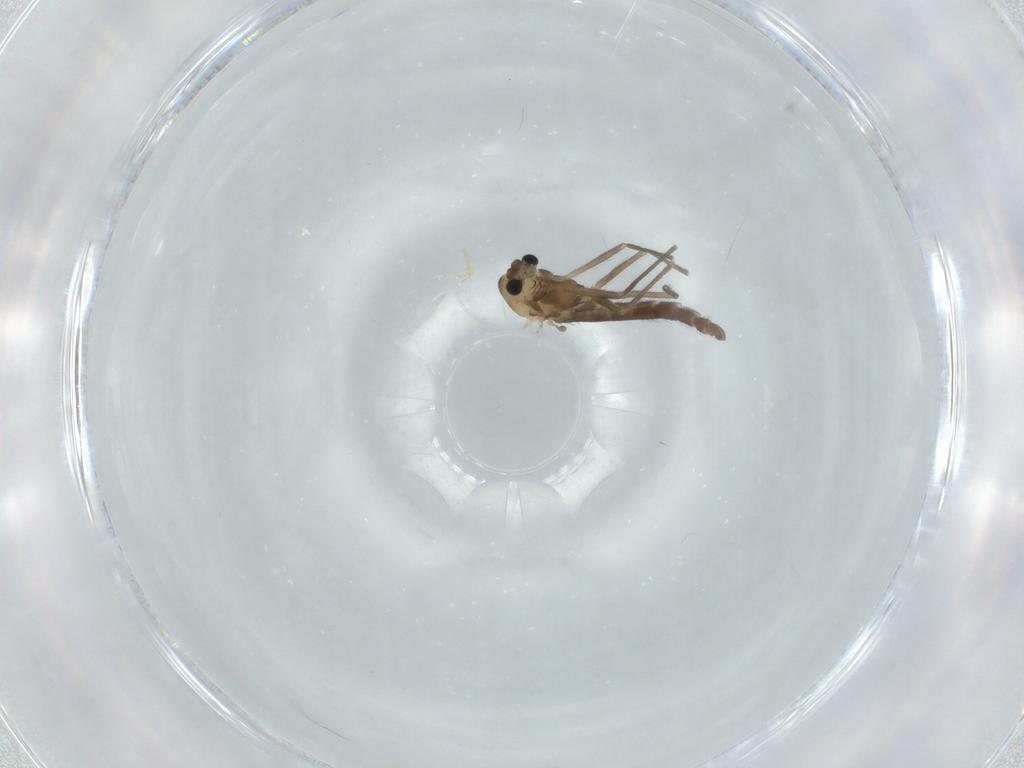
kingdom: Animalia
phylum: Arthropoda
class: Insecta
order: Diptera
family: Chironomidae
